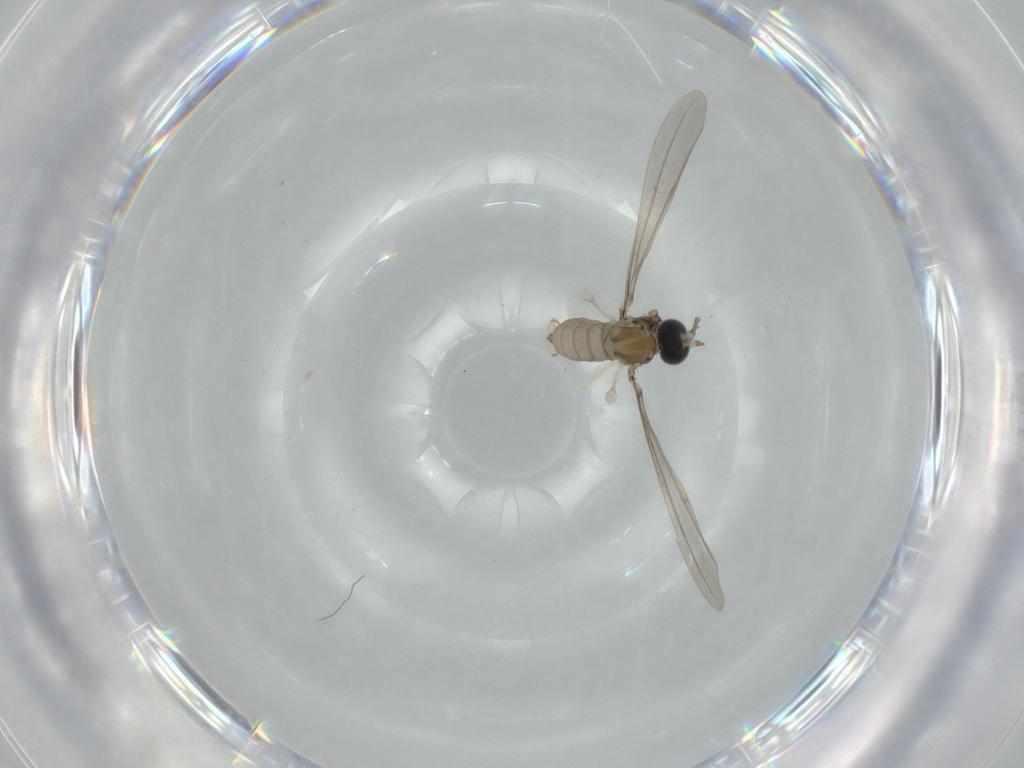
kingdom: Animalia
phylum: Arthropoda
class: Insecta
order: Diptera
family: Cecidomyiidae
